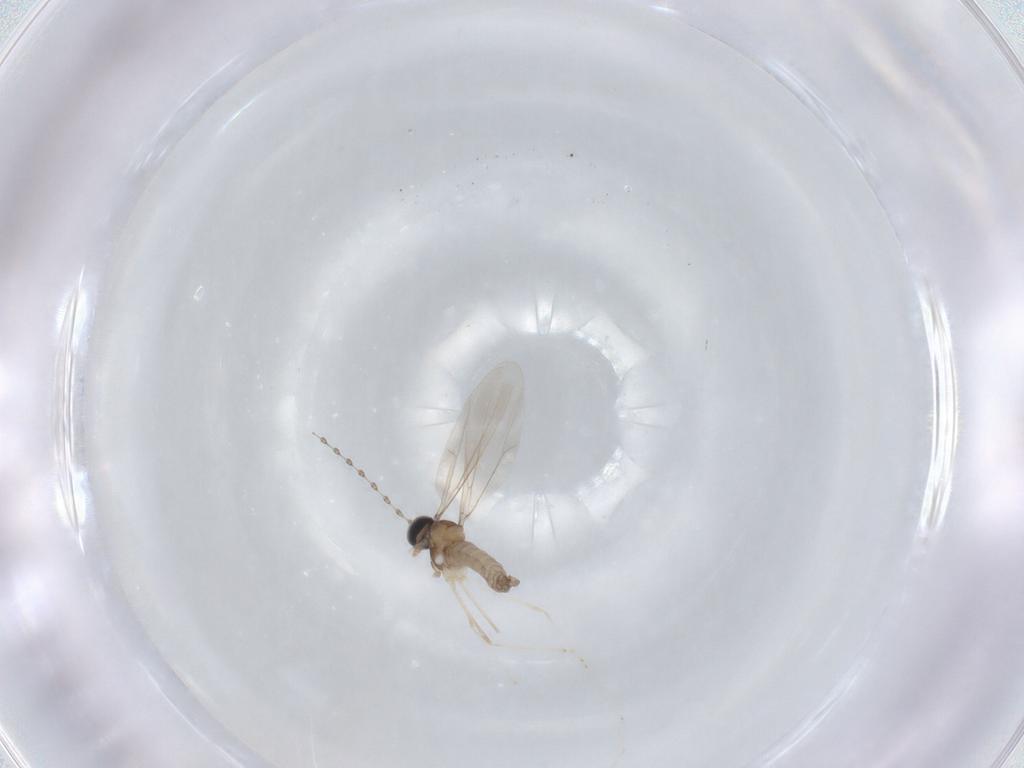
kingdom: Animalia
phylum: Arthropoda
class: Insecta
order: Diptera
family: Cecidomyiidae
